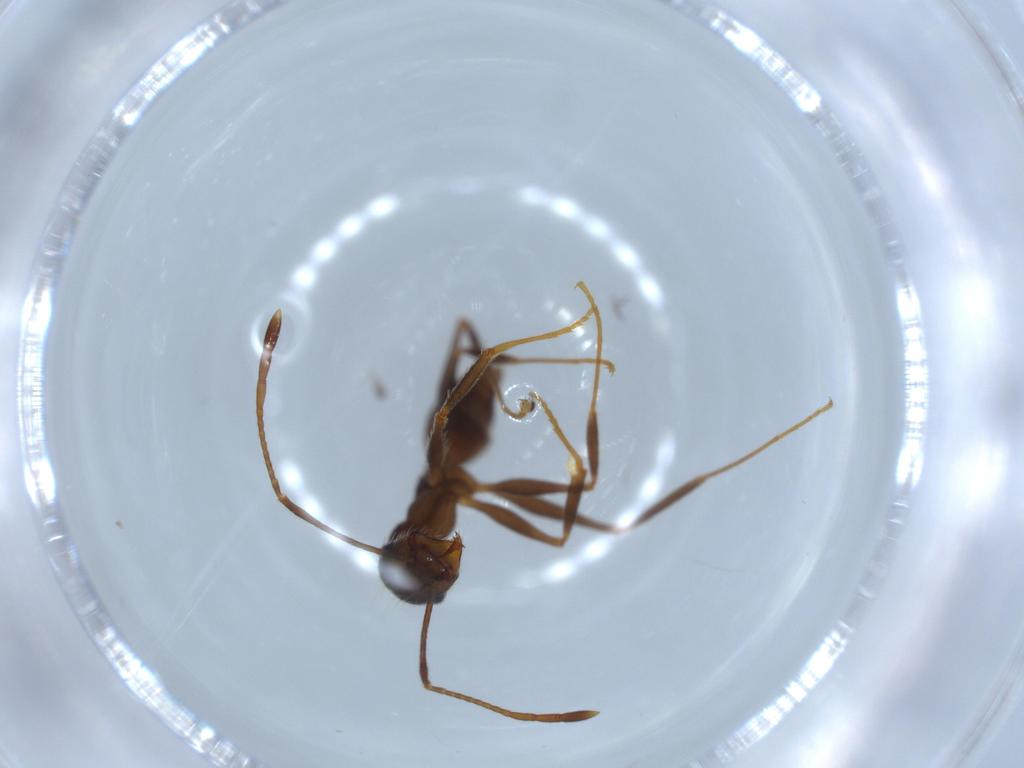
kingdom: Animalia
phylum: Arthropoda
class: Insecta
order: Hymenoptera
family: Formicidae
